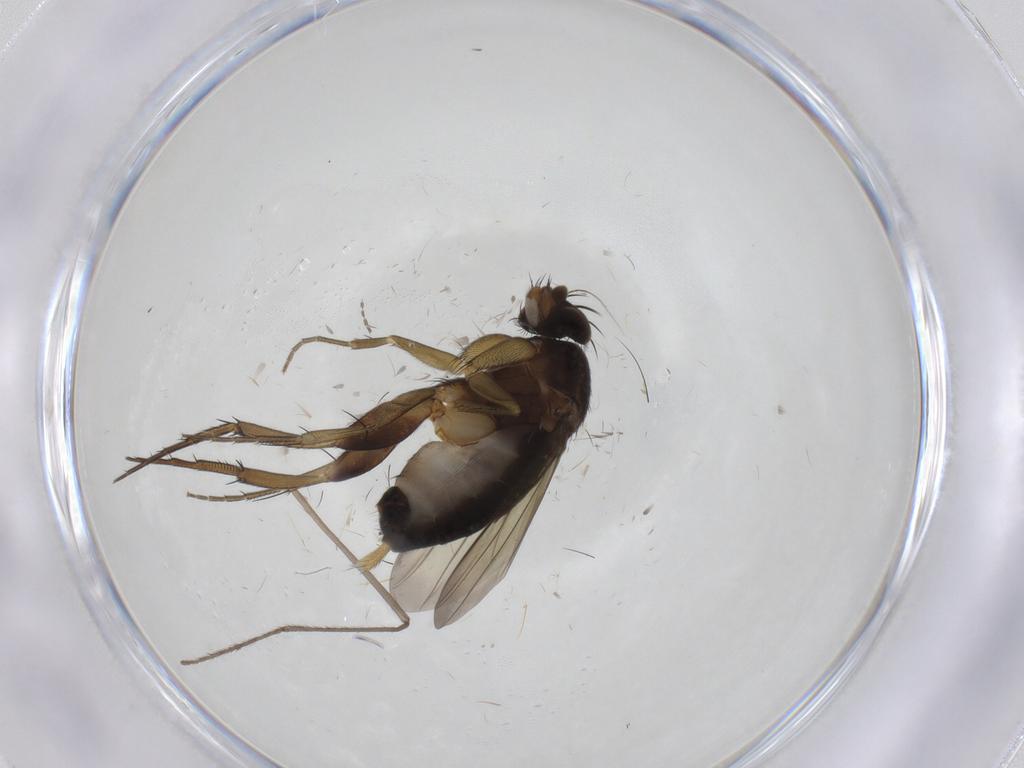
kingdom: Animalia
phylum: Arthropoda
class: Insecta
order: Diptera
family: Phoridae
